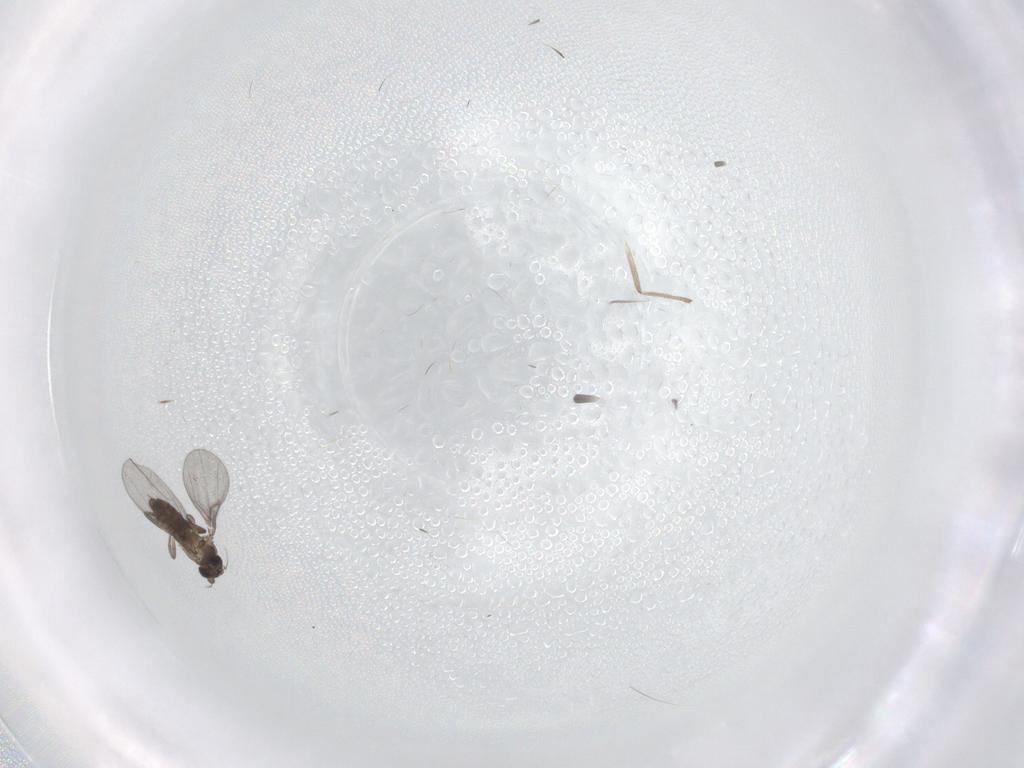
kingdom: Animalia
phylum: Arthropoda
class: Insecta
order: Diptera
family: Chironomidae
